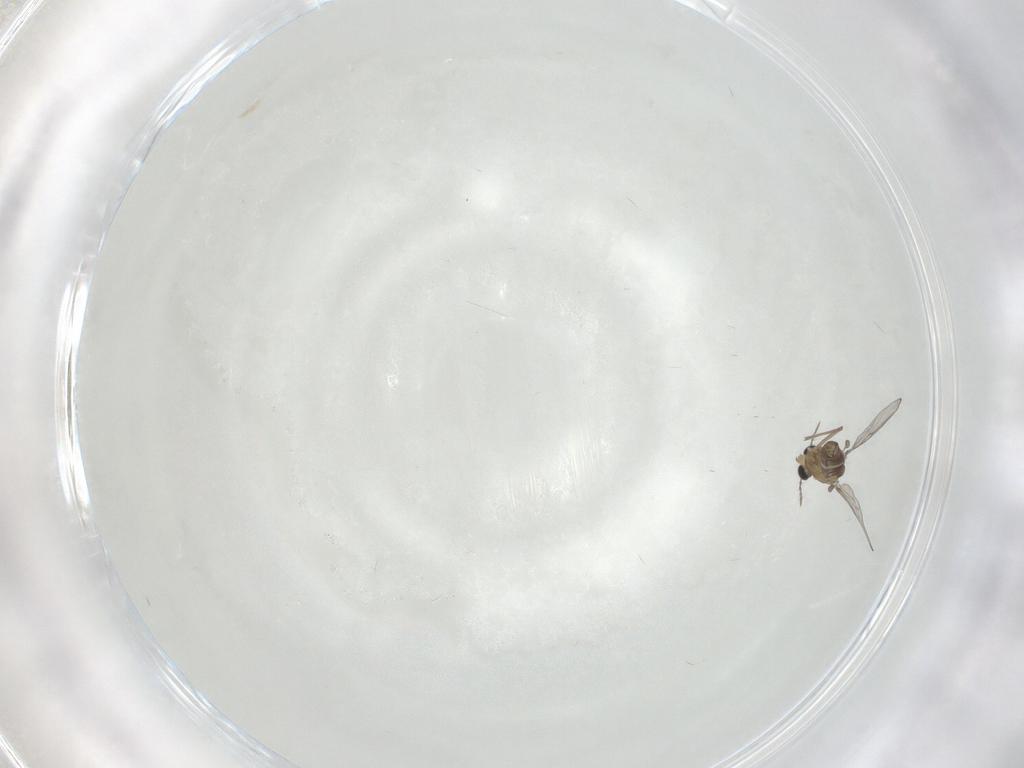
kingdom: Animalia
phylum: Arthropoda
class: Insecta
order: Diptera
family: Chironomidae
